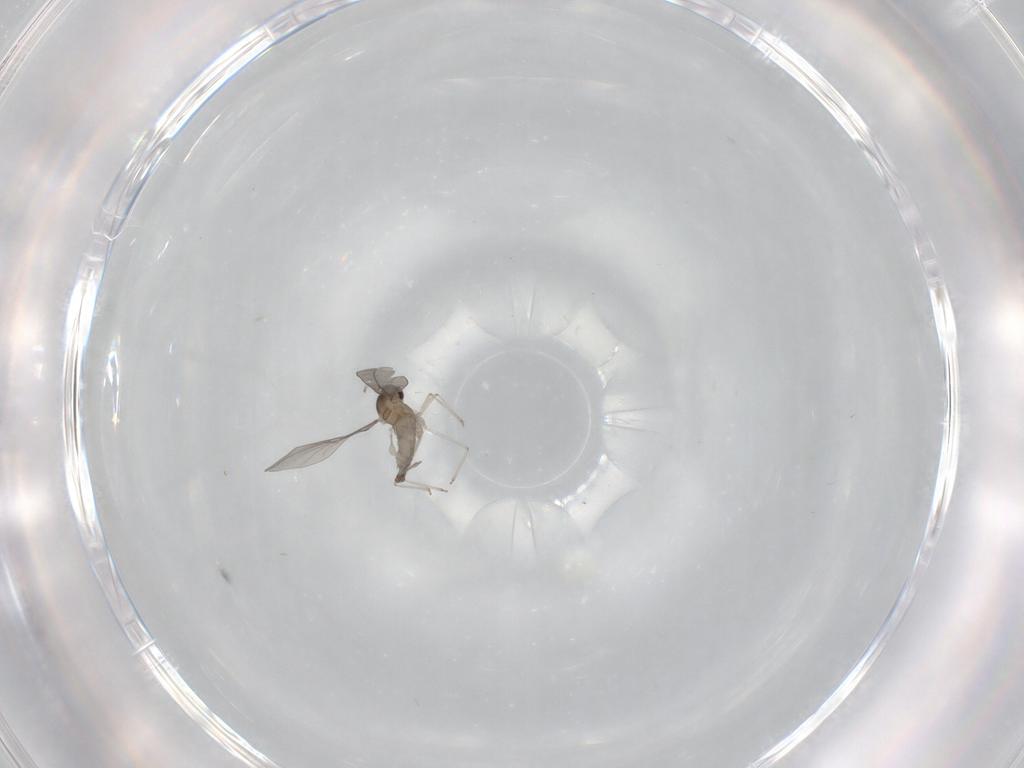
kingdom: Animalia
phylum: Arthropoda
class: Insecta
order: Diptera
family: Cecidomyiidae
